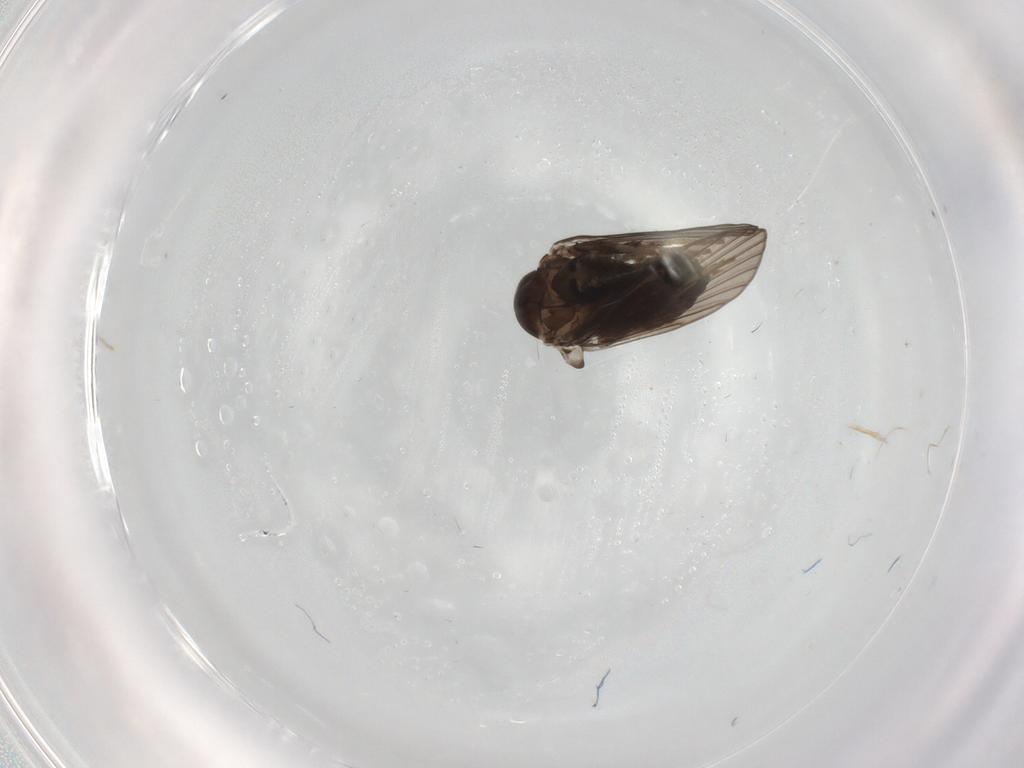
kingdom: Animalia
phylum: Arthropoda
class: Insecta
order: Diptera
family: Psychodidae
